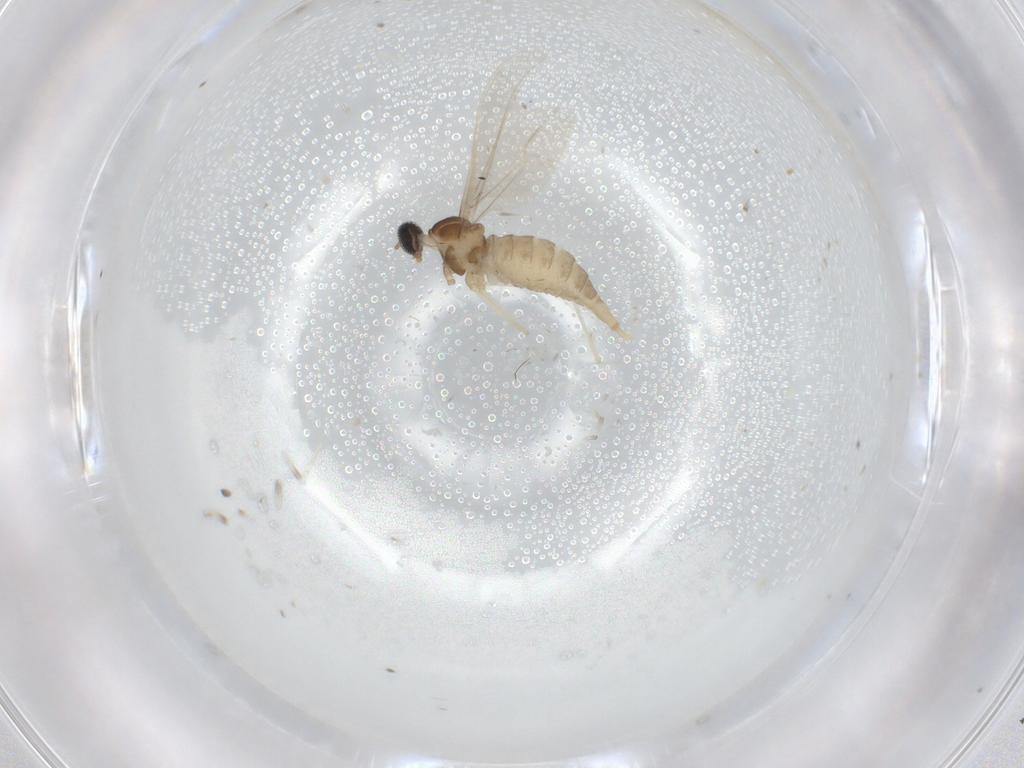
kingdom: Animalia
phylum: Arthropoda
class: Insecta
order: Diptera
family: Cecidomyiidae
